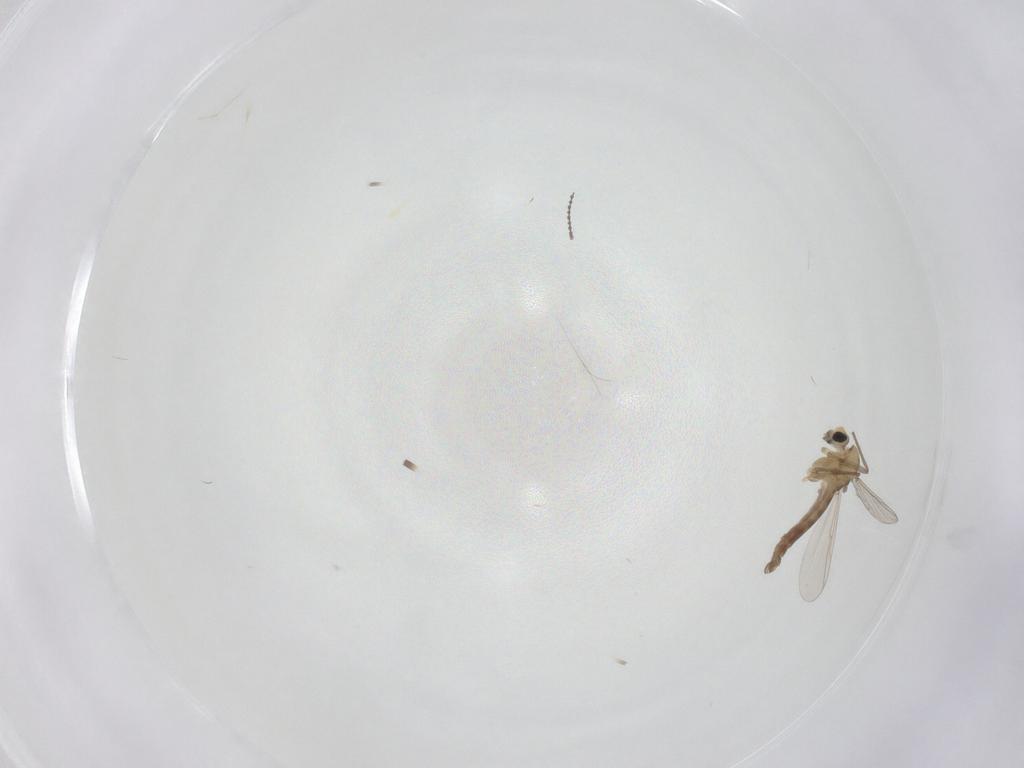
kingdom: Animalia
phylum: Arthropoda
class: Insecta
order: Diptera
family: Chironomidae
